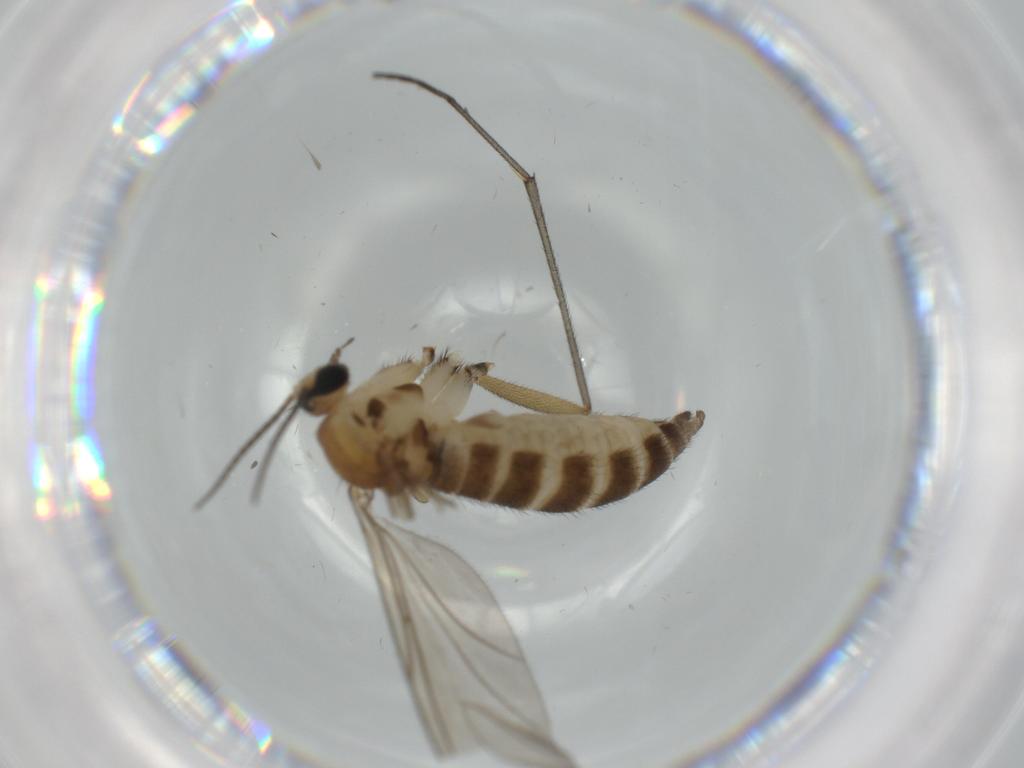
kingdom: Animalia
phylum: Arthropoda
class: Insecta
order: Diptera
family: Sciaridae
